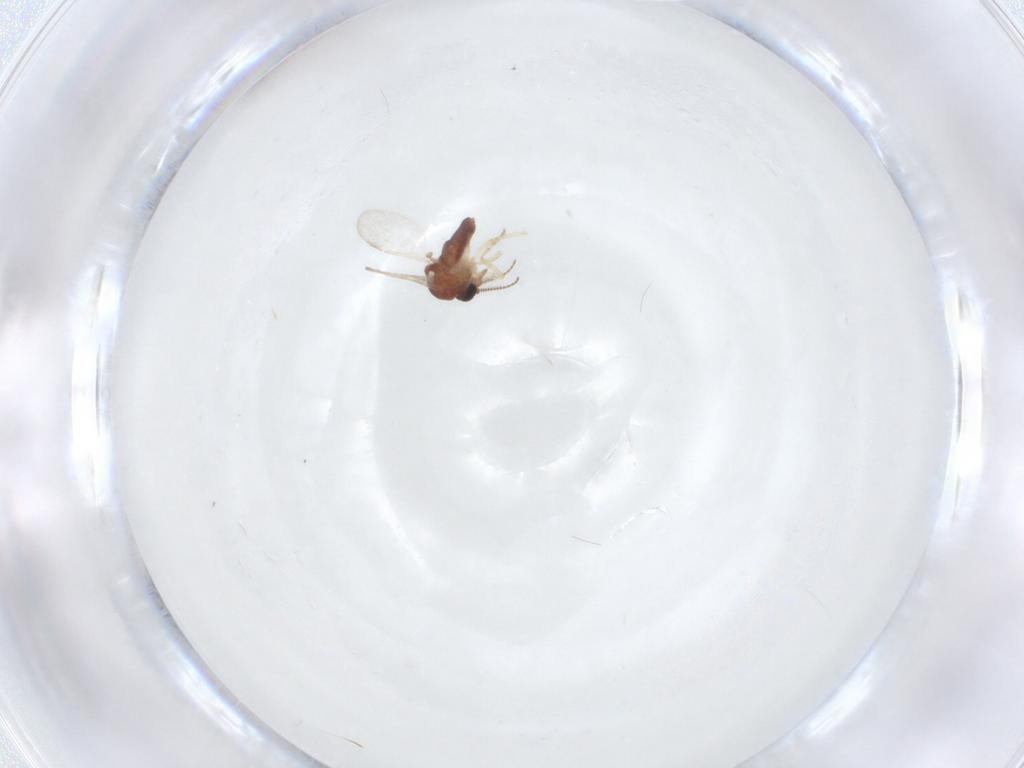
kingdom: Animalia
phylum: Arthropoda
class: Insecta
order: Diptera
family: Ceratopogonidae
